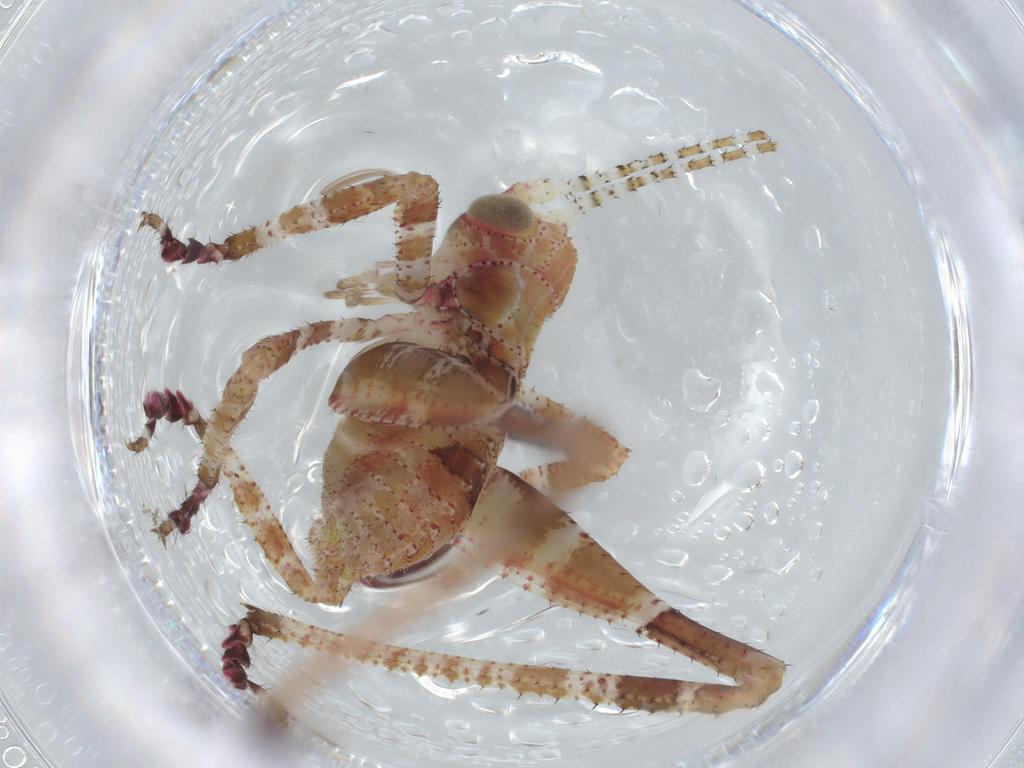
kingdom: Animalia
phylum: Arthropoda
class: Insecta
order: Orthoptera
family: Tettigoniidae
